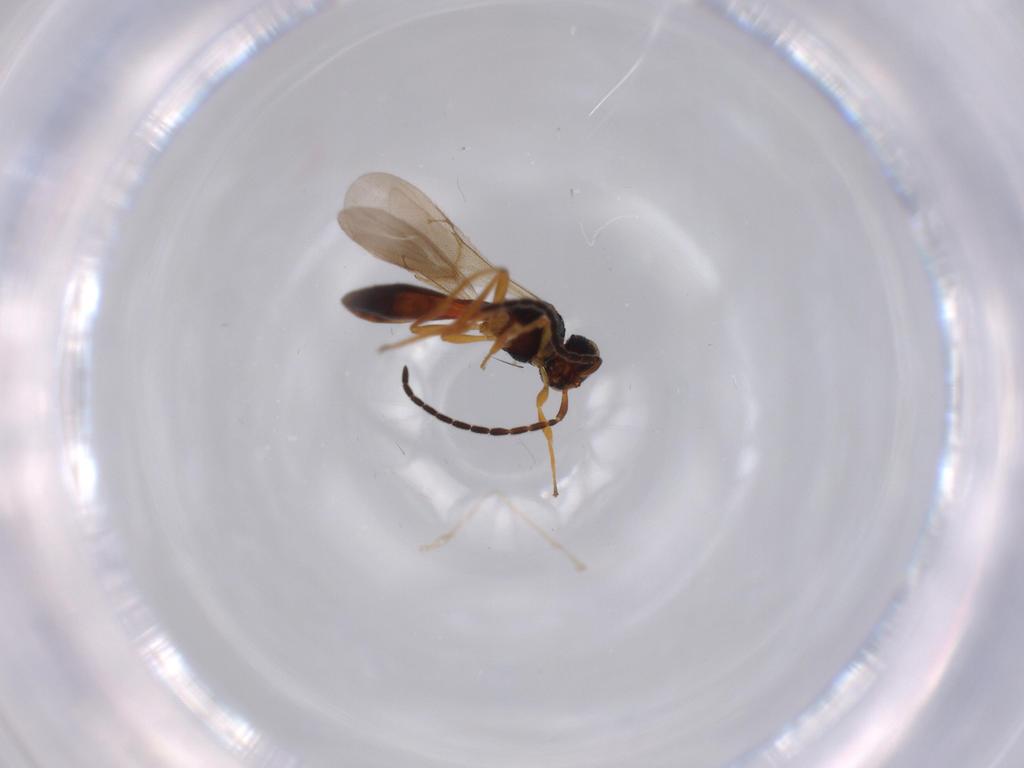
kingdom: Animalia
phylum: Arthropoda
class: Insecta
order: Hymenoptera
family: Scelionidae
